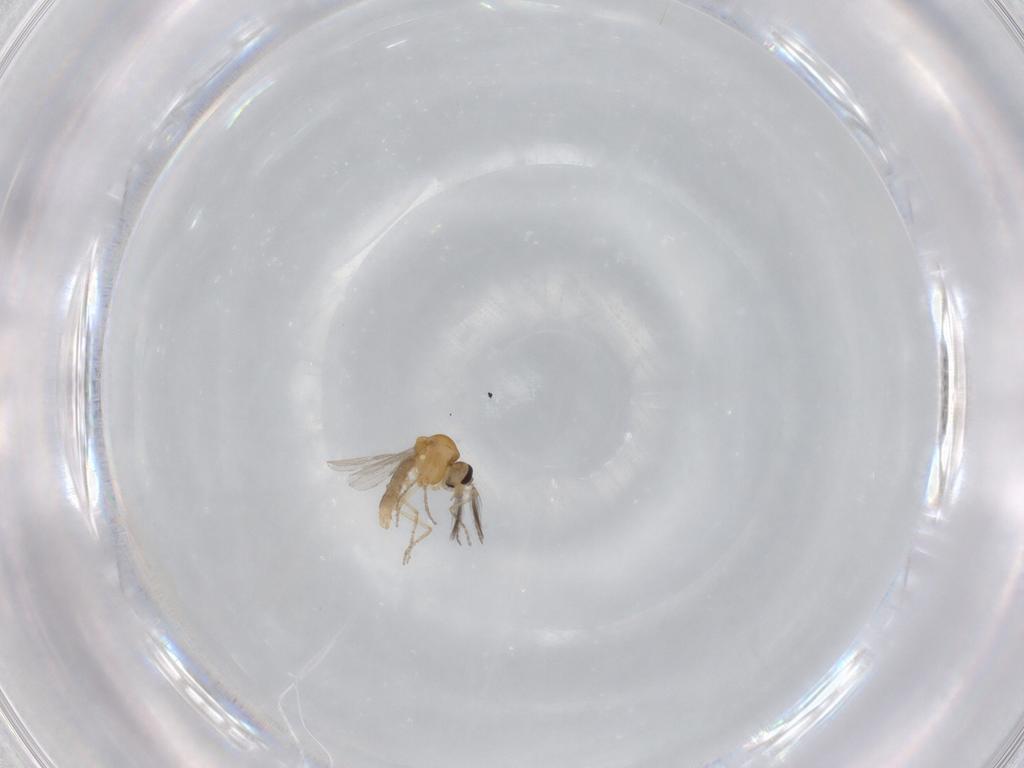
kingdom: Animalia
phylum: Arthropoda
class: Insecta
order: Diptera
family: Ceratopogonidae
